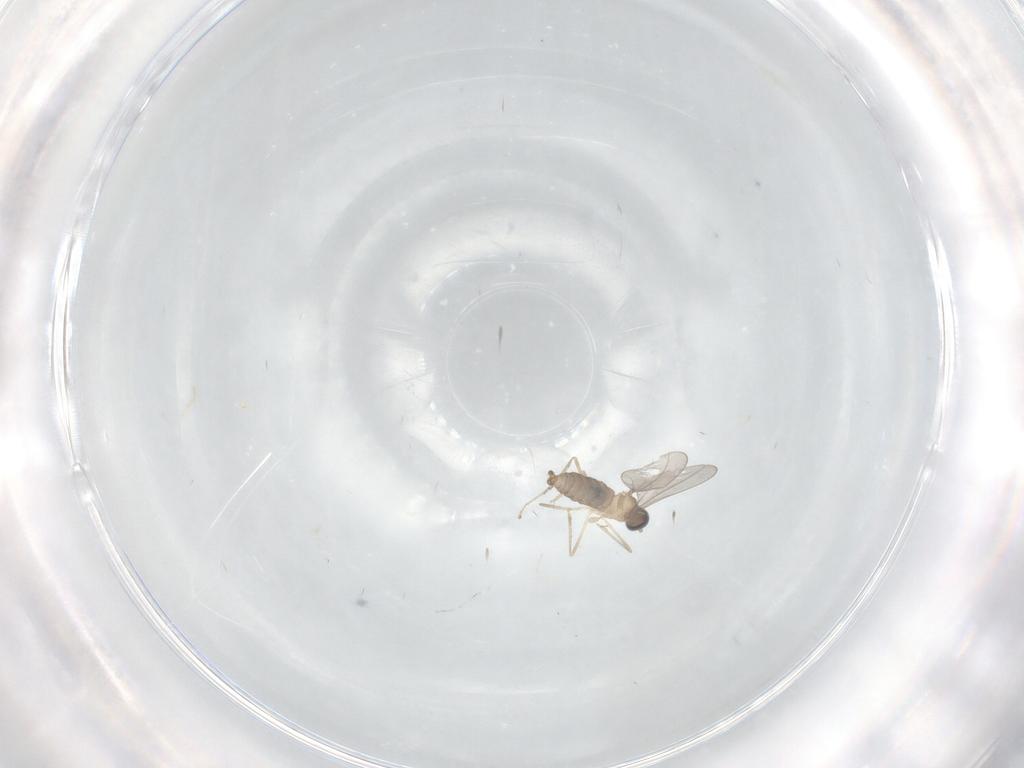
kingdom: Animalia
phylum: Arthropoda
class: Insecta
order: Diptera
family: Cecidomyiidae
